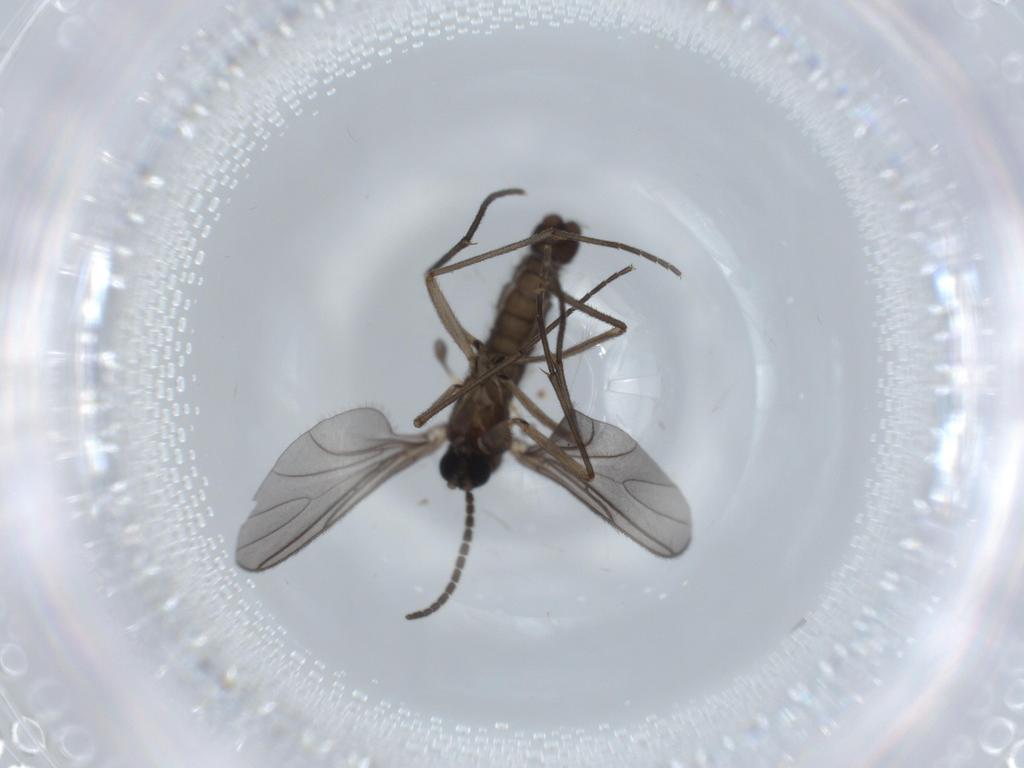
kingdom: Animalia
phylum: Arthropoda
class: Insecta
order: Diptera
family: Sciaridae
